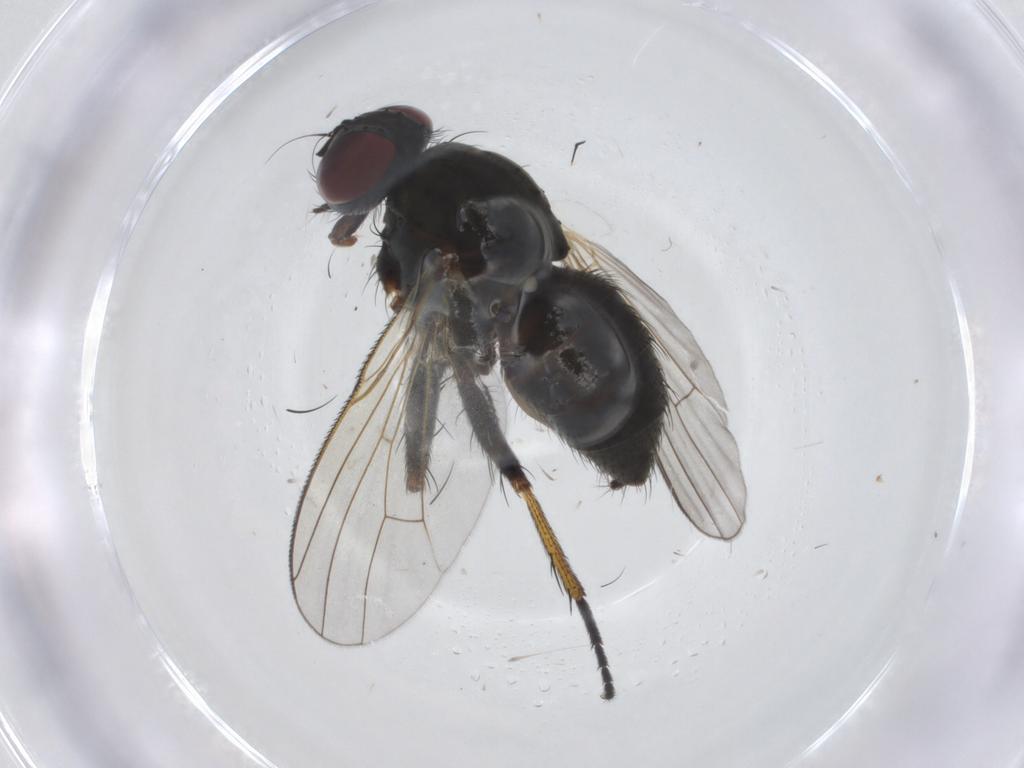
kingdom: Animalia
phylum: Arthropoda
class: Insecta
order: Diptera
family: Muscidae
